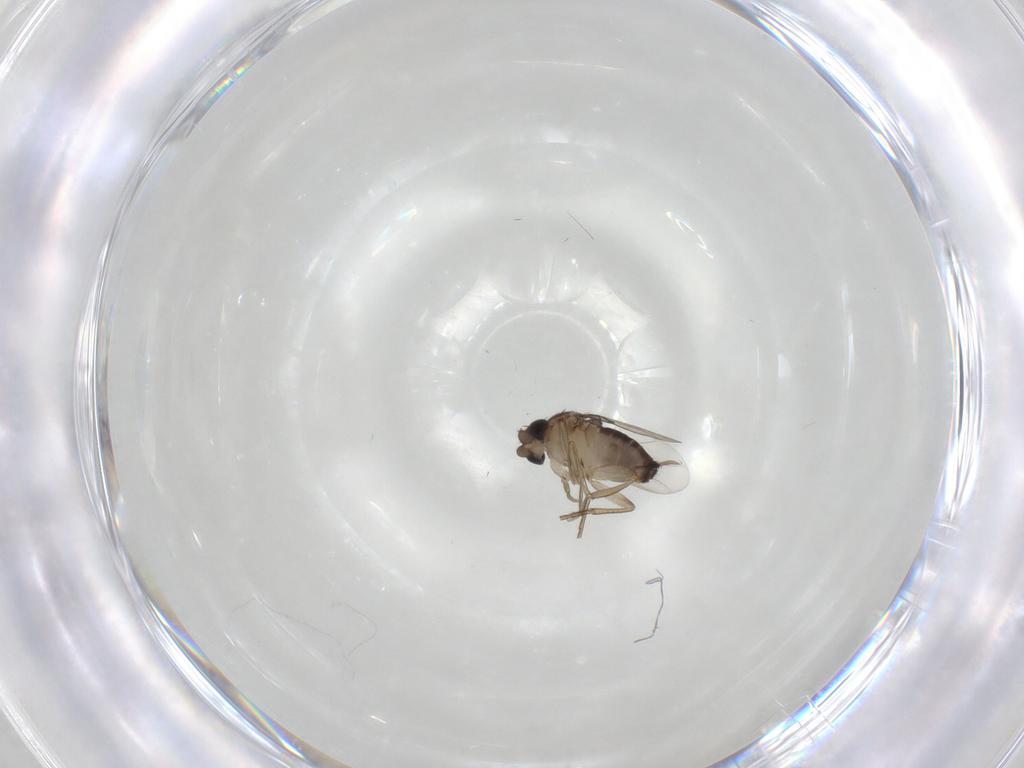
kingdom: Animalia
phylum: Arthropoda
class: Insecta
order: Diptera
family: Phoridae
